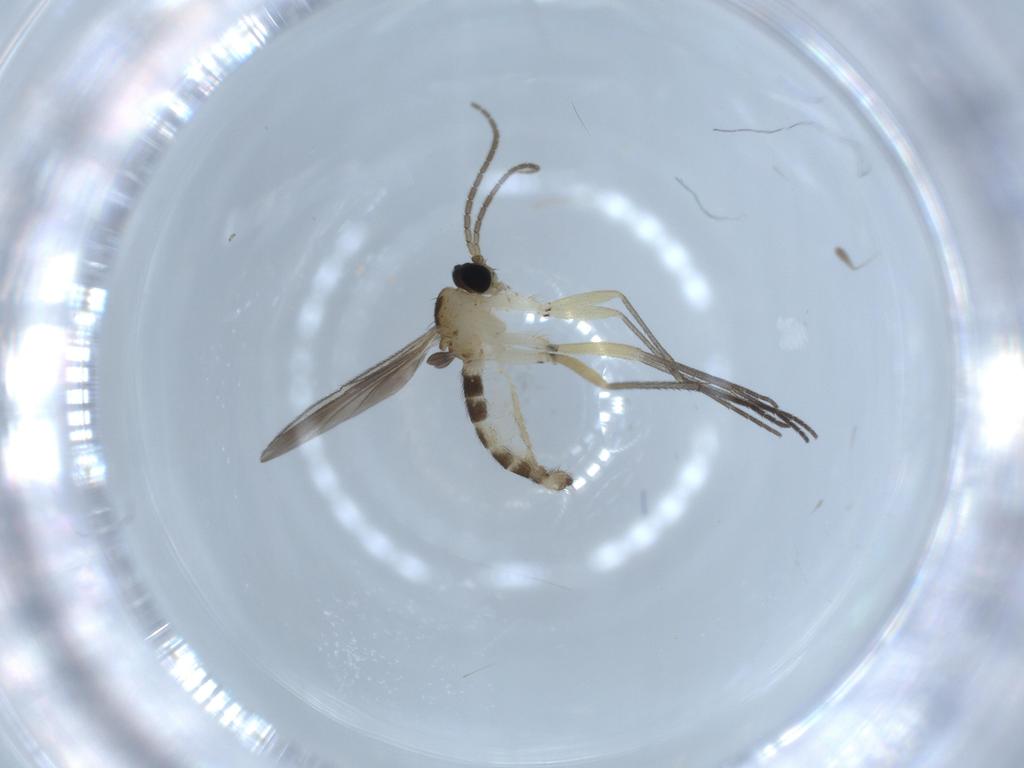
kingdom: Animalia
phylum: Arthropoda
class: Insecta
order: Diptera
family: Sciaridae
